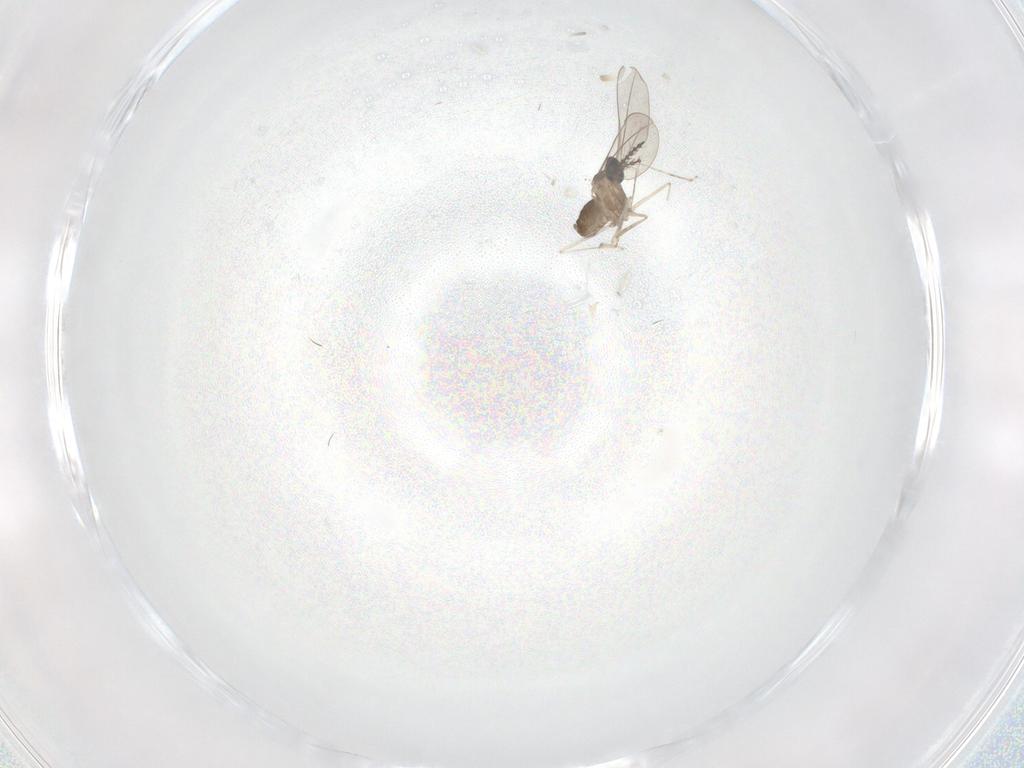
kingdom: Animalia
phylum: Arthropoda
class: Insecta
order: Diptera
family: Cecidomyiidae
